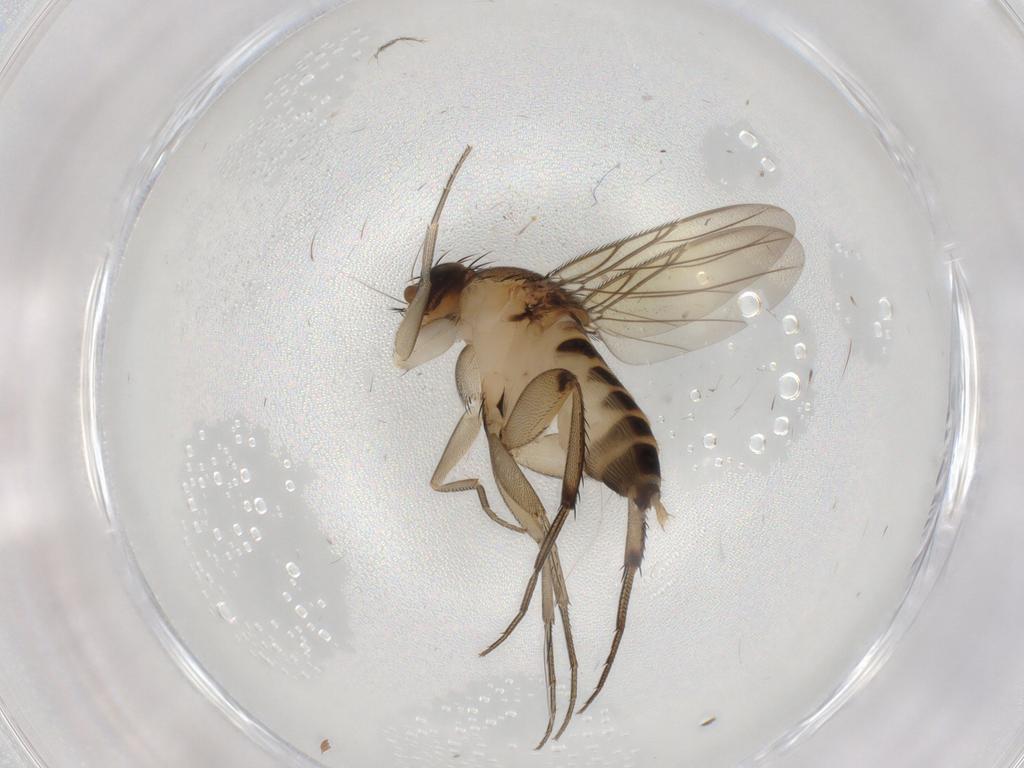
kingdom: Animalia
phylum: Arthropoda
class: Insecta
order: Diptera
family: Phoridae
